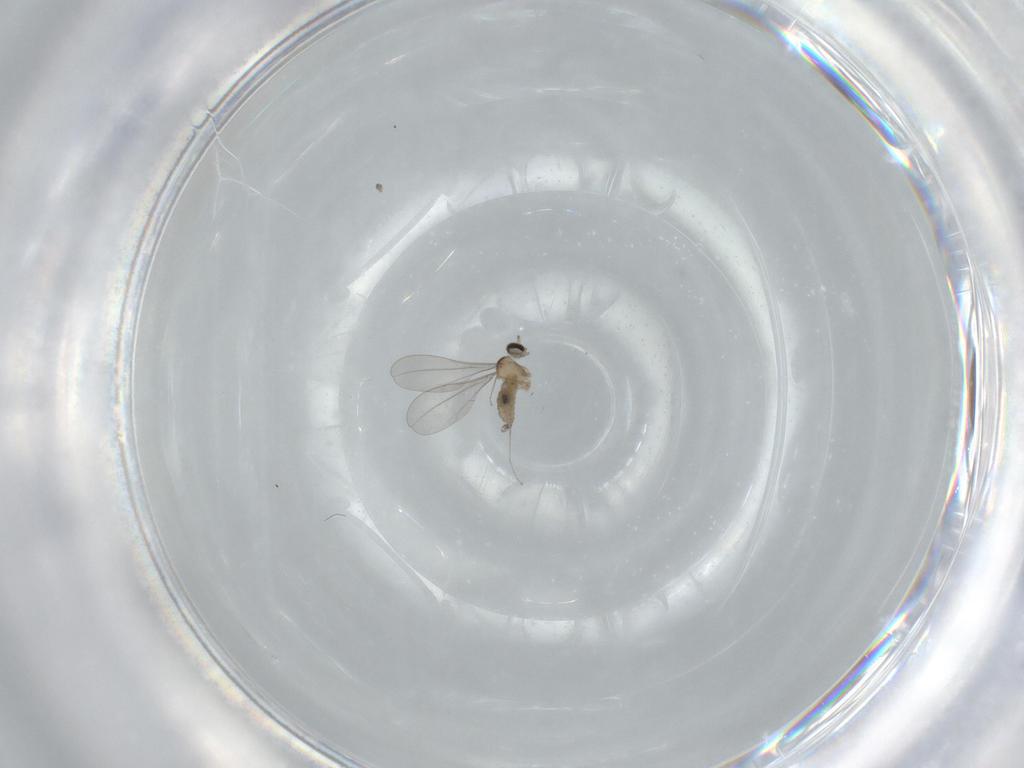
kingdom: Animalia
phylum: Arthropoda
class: Insecta
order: Diptera
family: Cecidomyiidae
